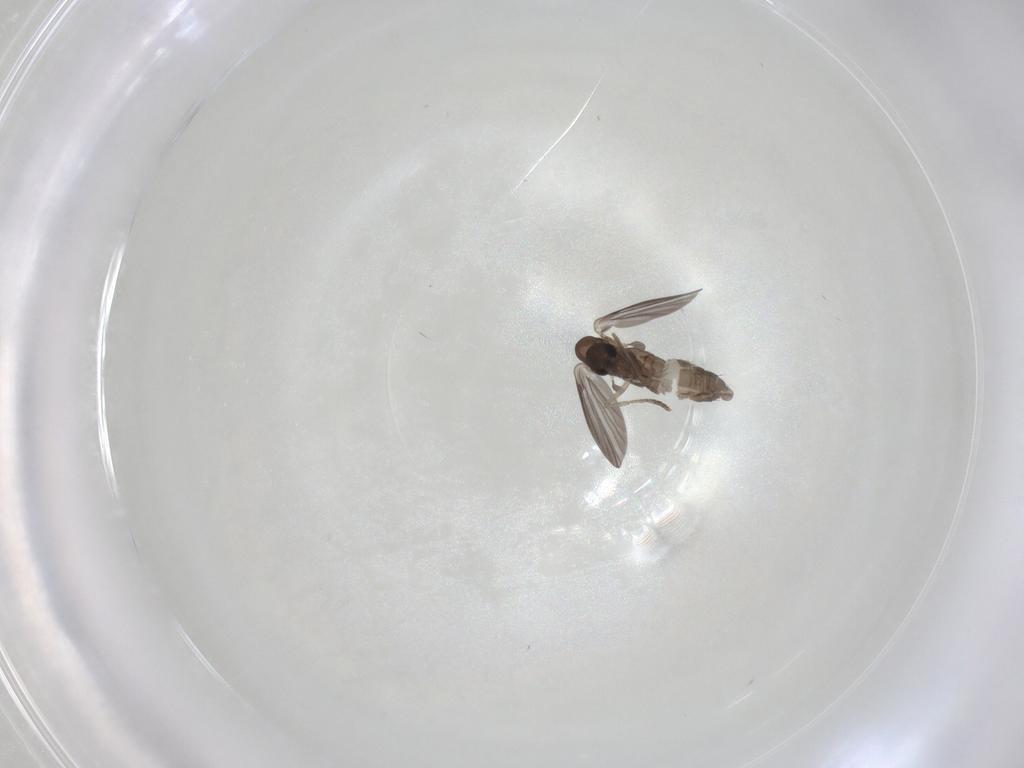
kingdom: Animalia
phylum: Arthropoda
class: Insecta
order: Diptera
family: Psychodidae
